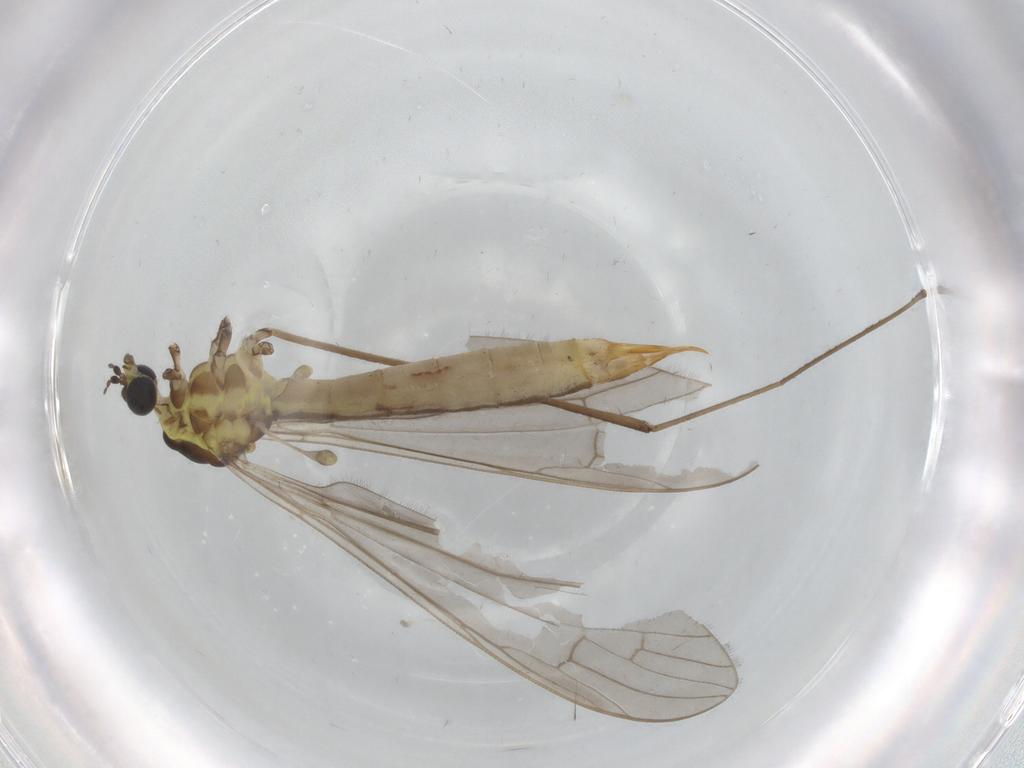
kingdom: Animalia
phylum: Arthropoda
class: Insecta
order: Diptera
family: Limoniidae
